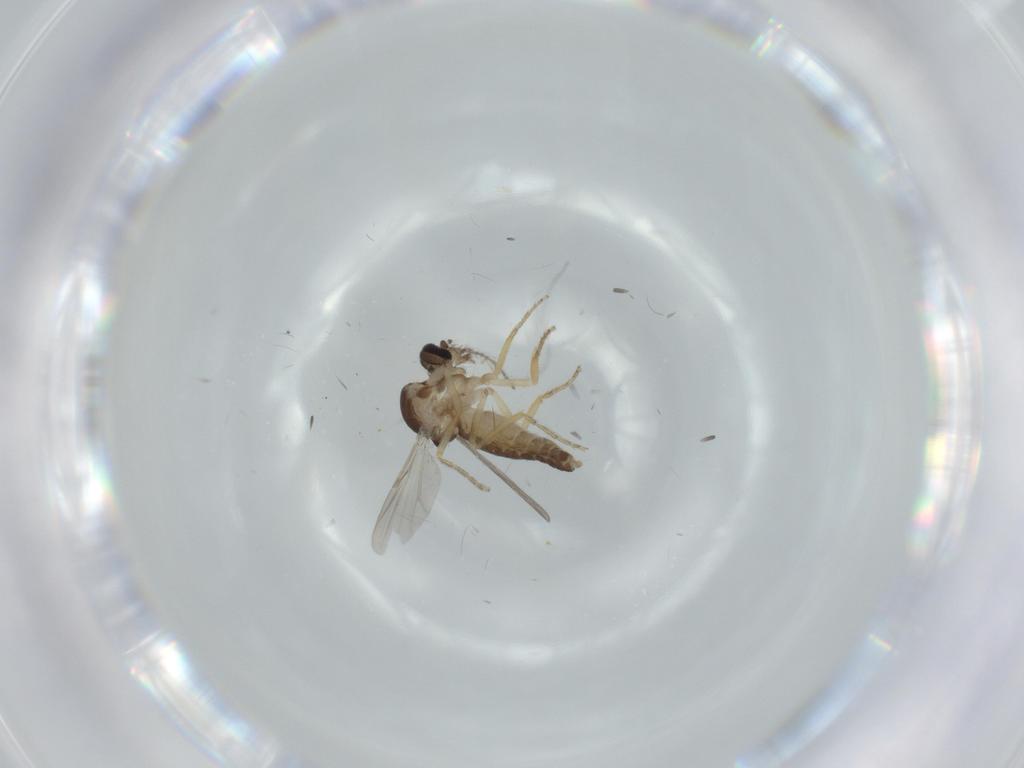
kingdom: Animalia
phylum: Arthropoda
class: Insecta
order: Diptera
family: Ceratopogonidae
